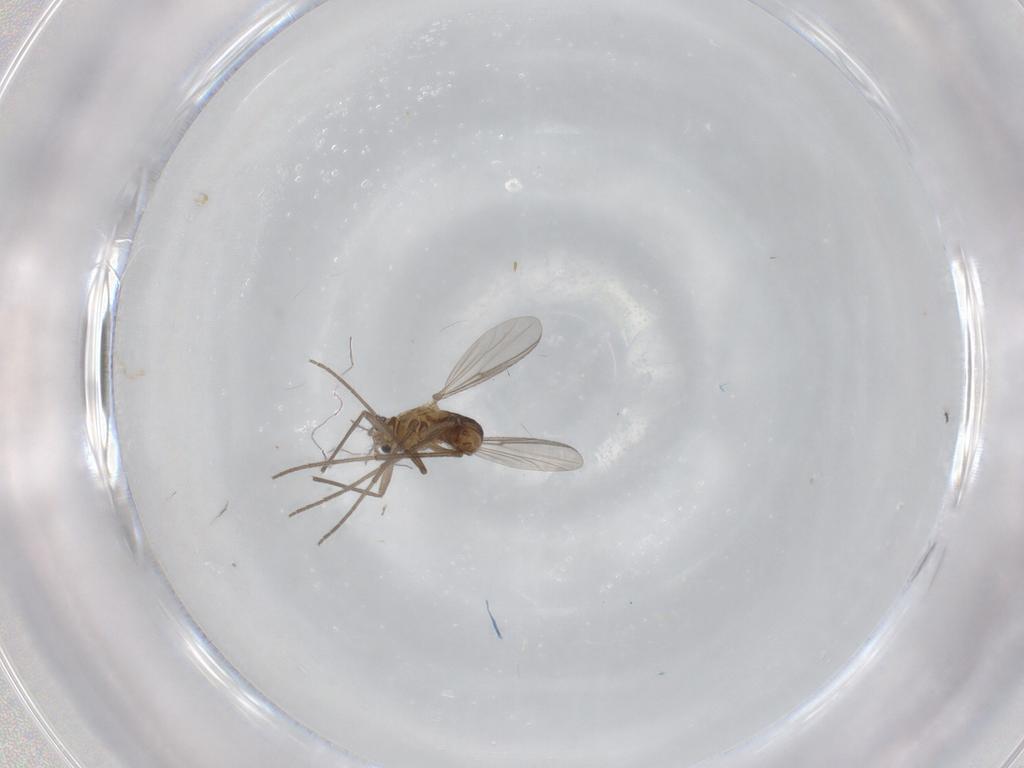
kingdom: Animalia
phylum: Arthropoda
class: Insecta
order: Diptera
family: Chironomidae
